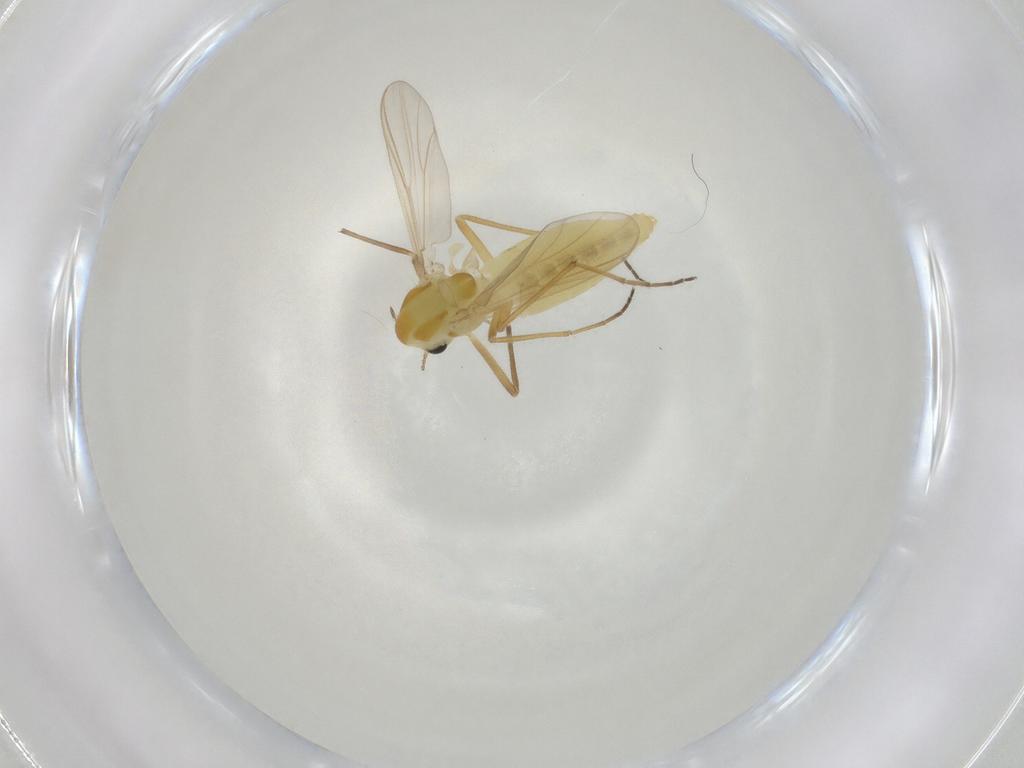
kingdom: Animalia
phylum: Arthropoda
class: Insecta
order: Diptera
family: Chironomidae
